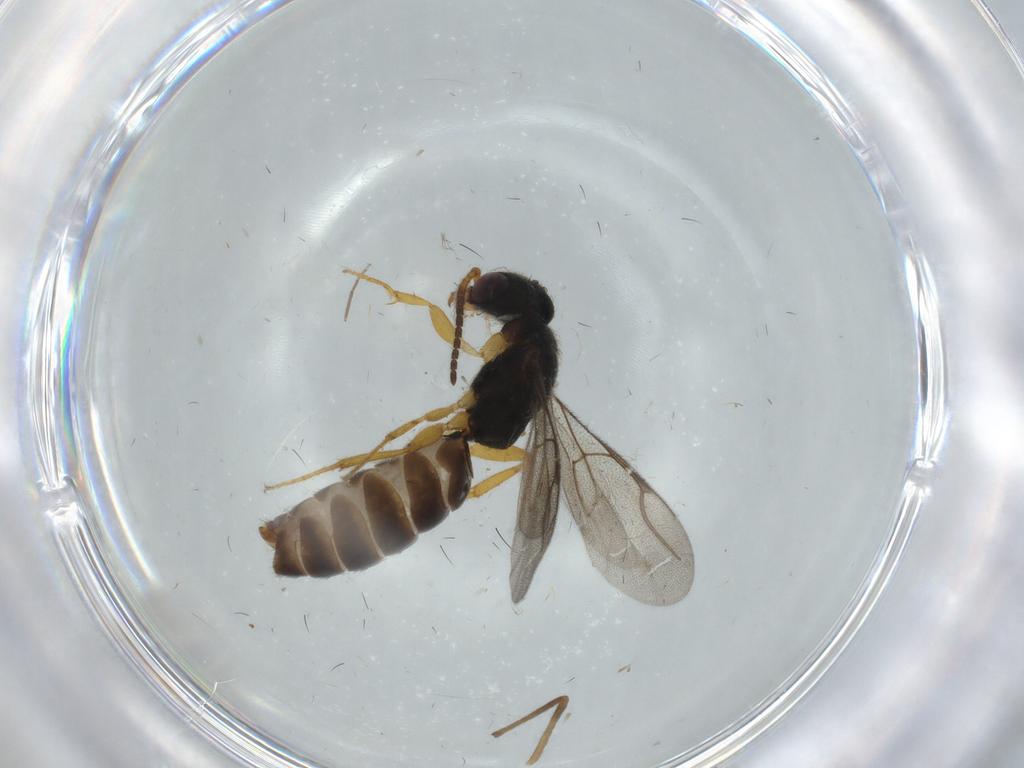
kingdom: Animalia
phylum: Arthropoda
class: Insecta
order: Hymenoptera
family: Bethylidae
